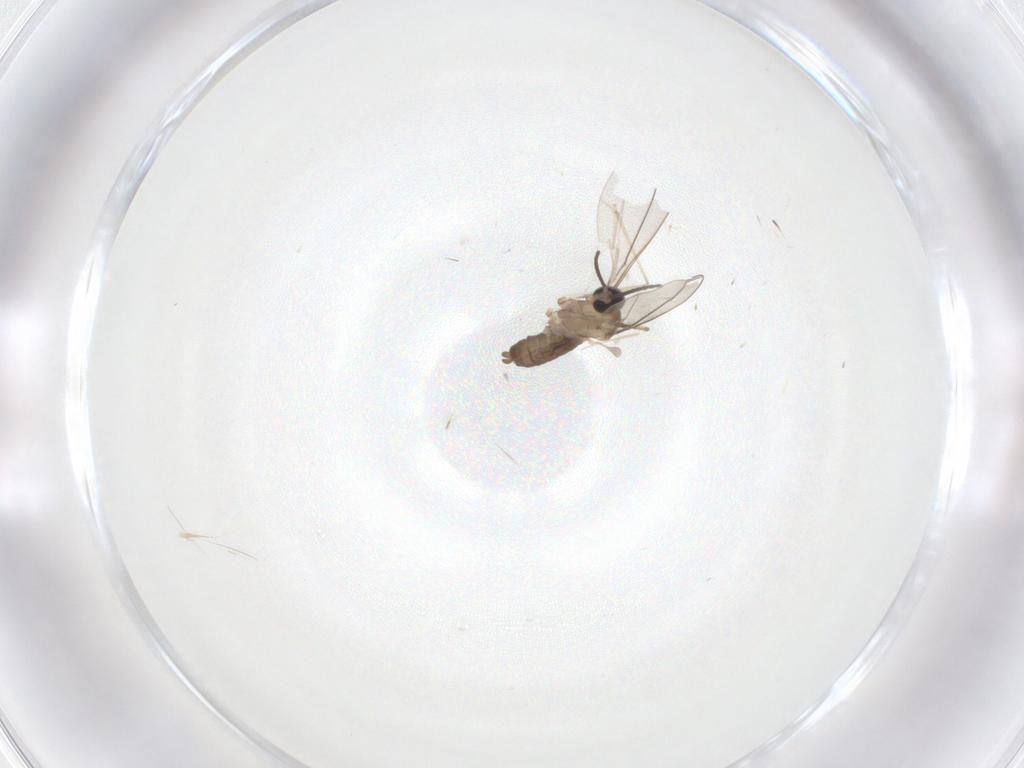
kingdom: Animalia
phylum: Arthropoda
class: Insecta
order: Diptera
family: Cecidomyiidae
